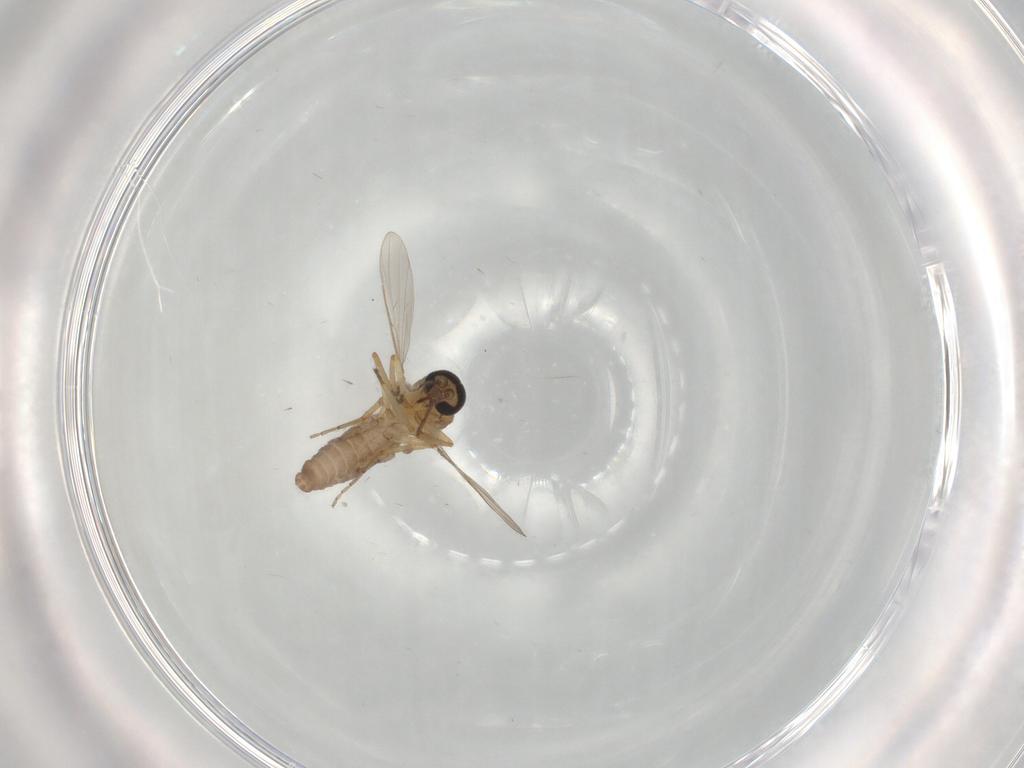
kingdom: Animalia
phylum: Arthropoda
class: Insecta
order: Diptera
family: Ceratopogonidae
